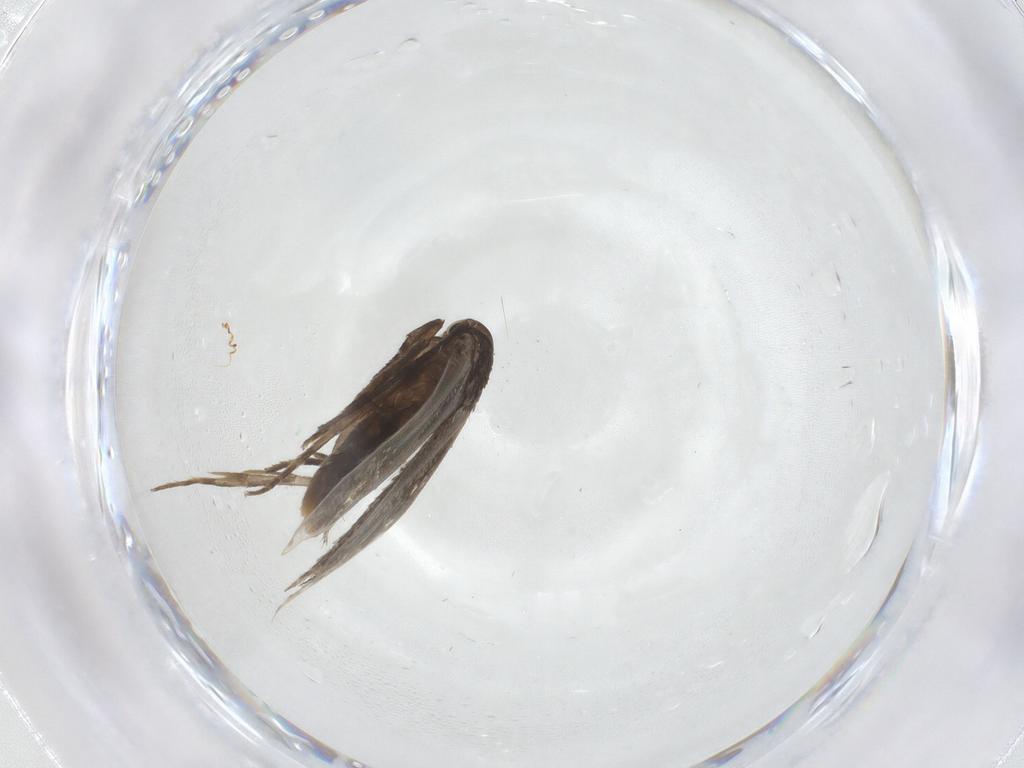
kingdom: Animalia
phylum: Arthropoda
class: Insecta
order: Lepidoptera
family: Elachistidae
